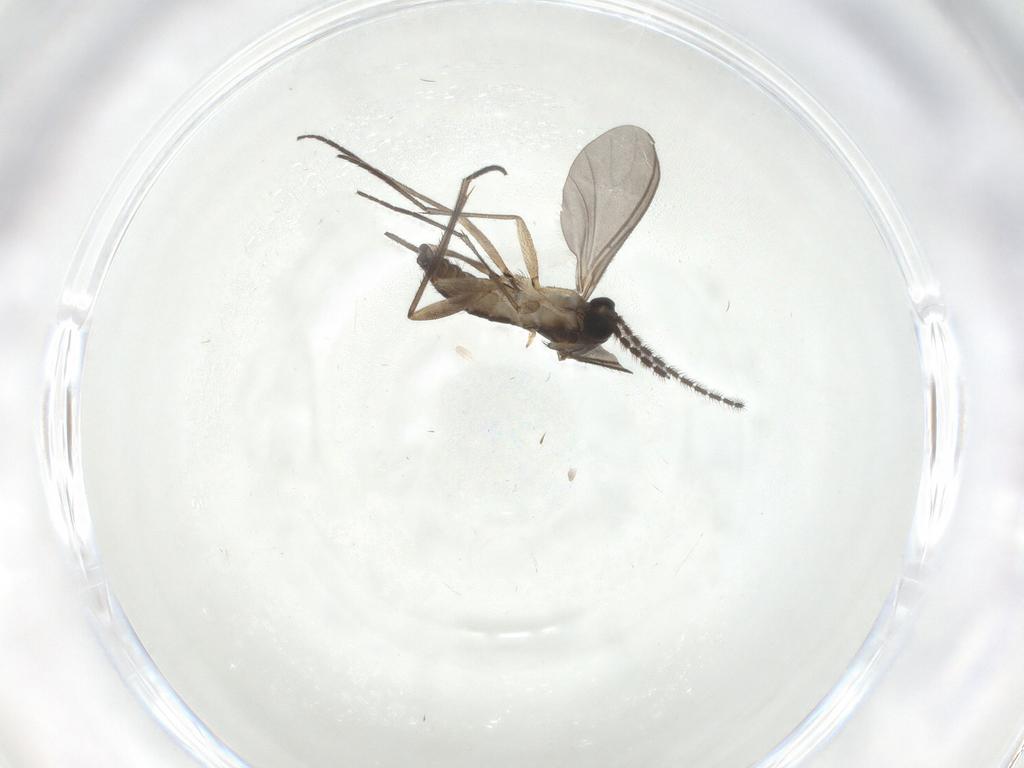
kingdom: Animalia
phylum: Arthropoda
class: Insecta
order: Diptera
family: Sciaridae
